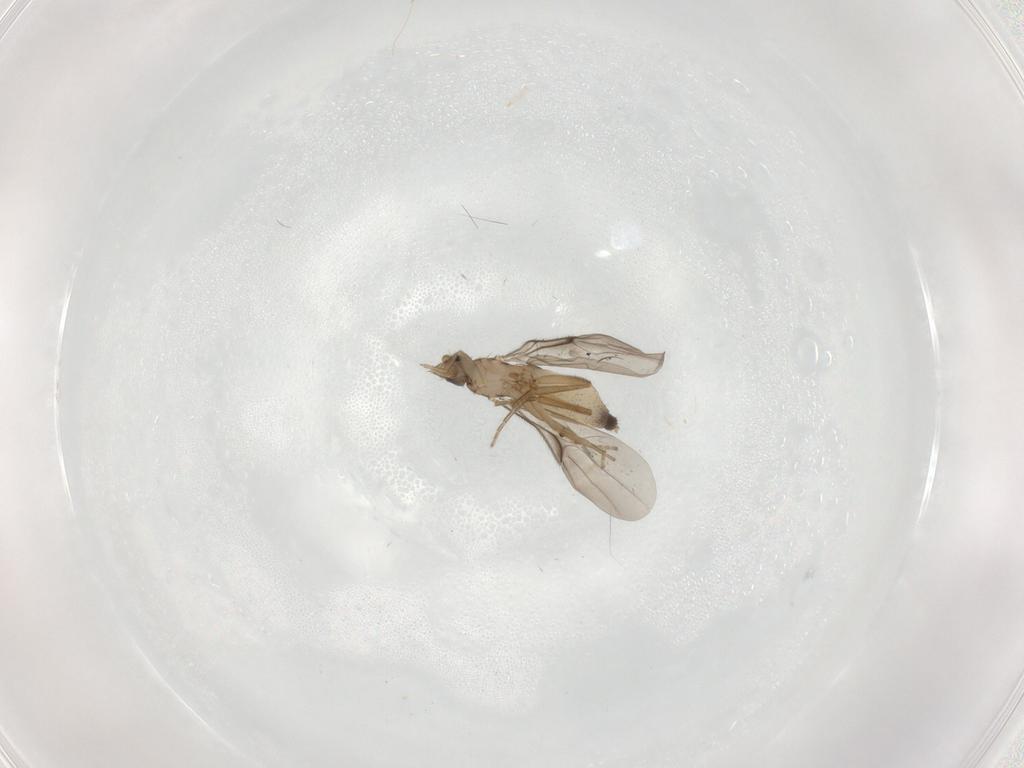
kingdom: Animalia
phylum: Arthropoda
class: Insecta
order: Diptera
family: Sciaridae
